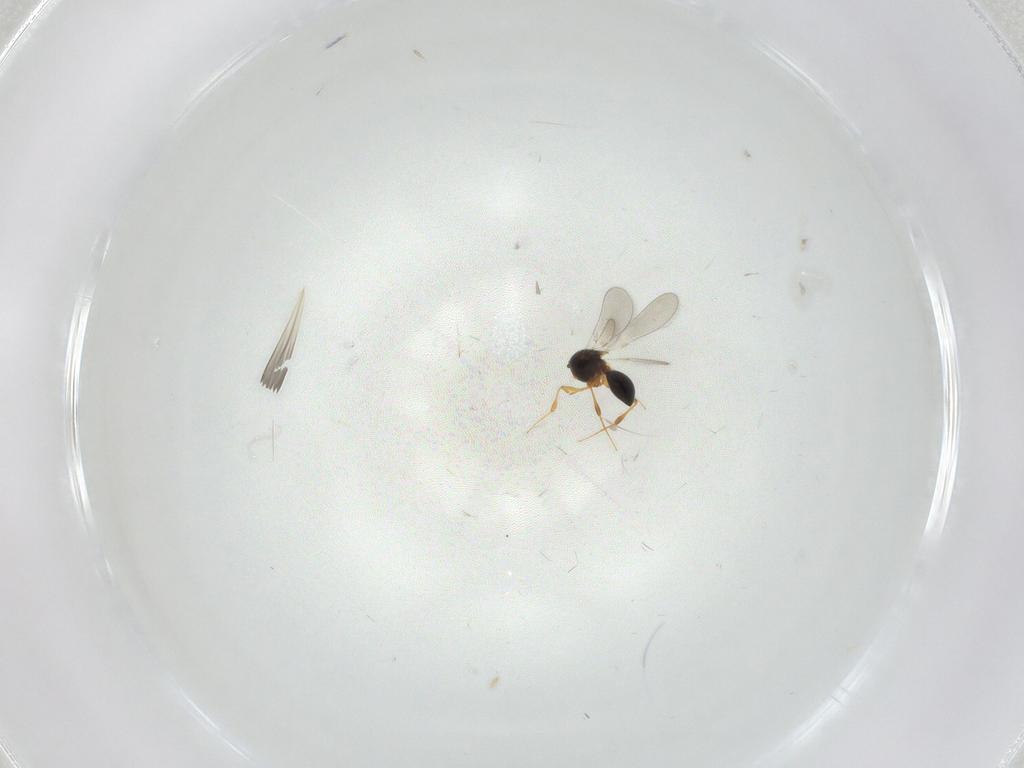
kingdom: Animalia
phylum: Arthropoda
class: Insecta
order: Hymenoptera
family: Platygastridae
